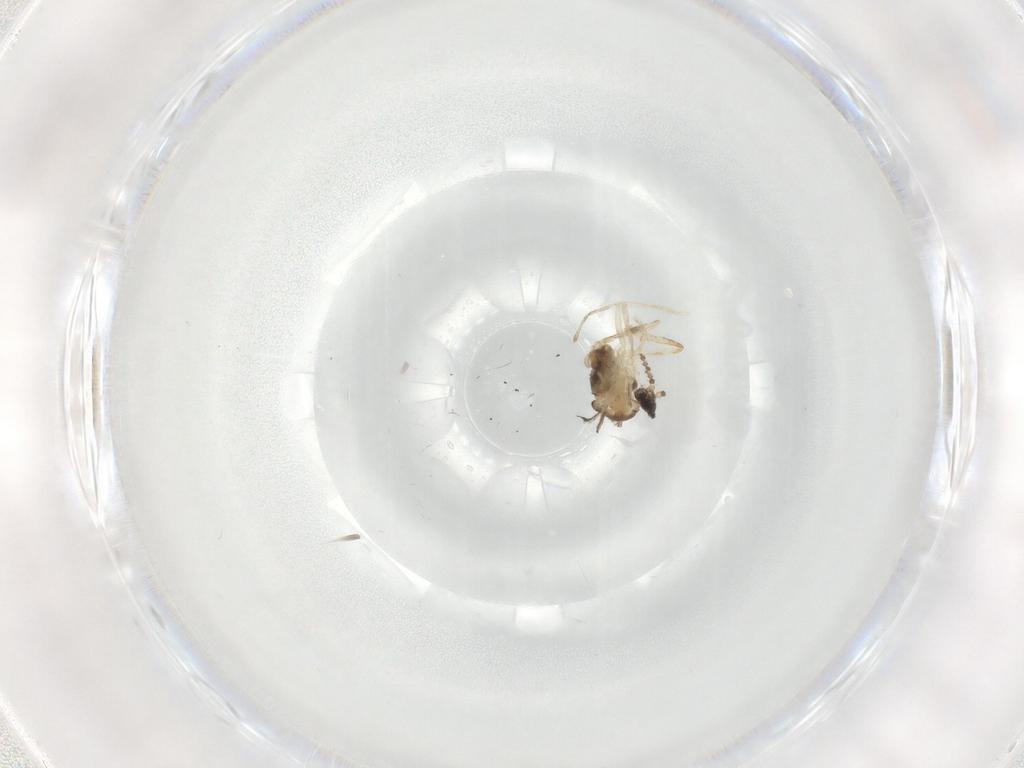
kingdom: Animalia
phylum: Arthropoda
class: Insecta
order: Diptera
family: Cecidomyiidae
